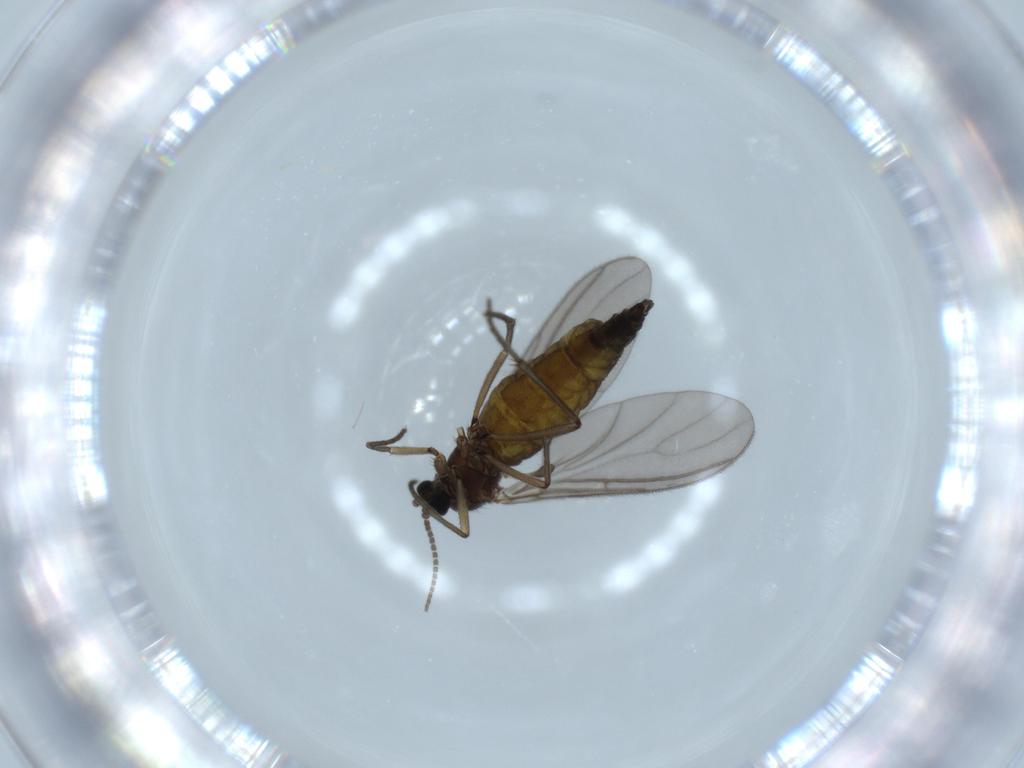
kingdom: Animalia
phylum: Arthropoda
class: Insecta
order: Diptera
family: Sciaridae
